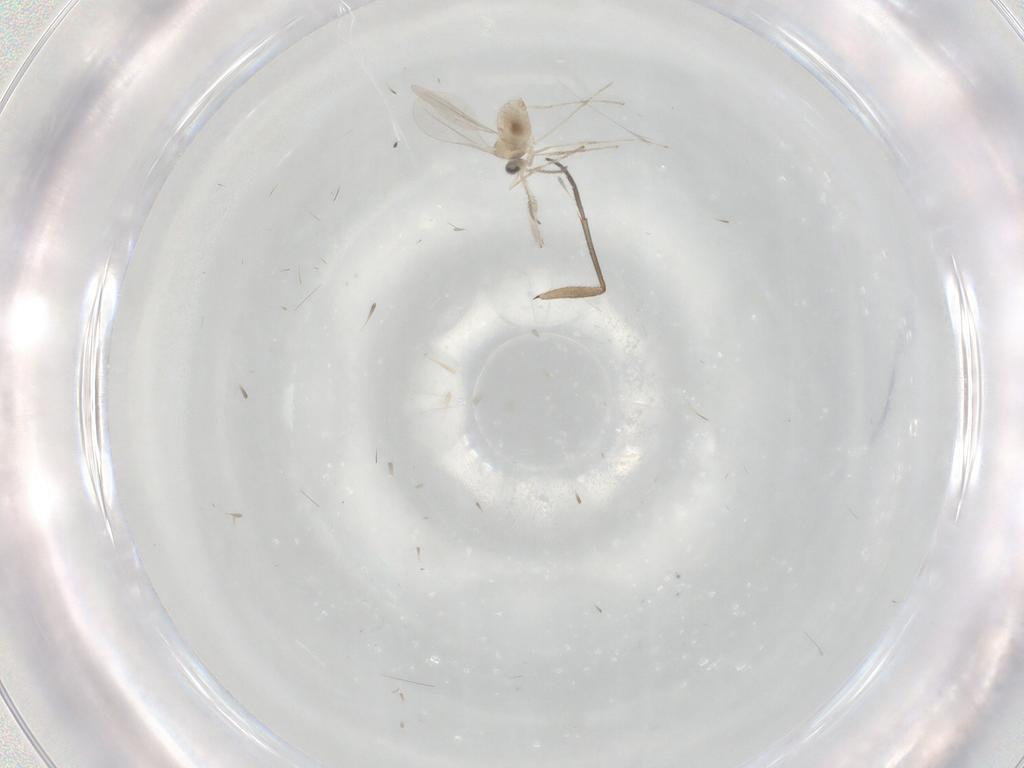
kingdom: Animalia
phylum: Arthropoda
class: Insecta
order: Diptera
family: Sciaridae
